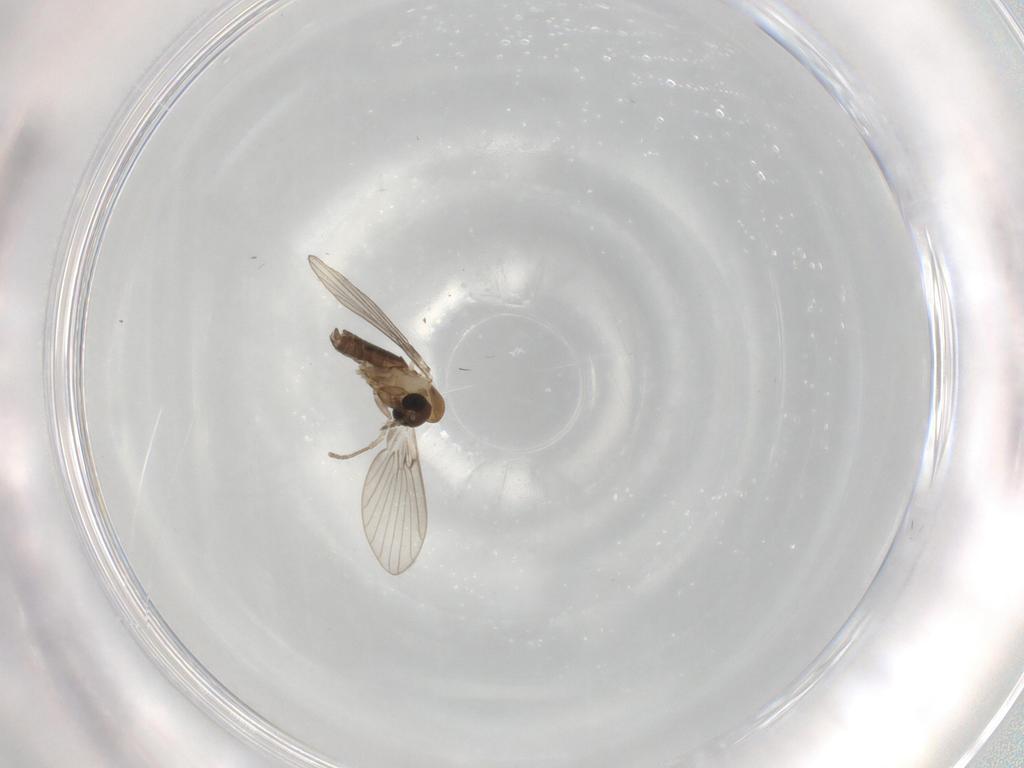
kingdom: Animalia
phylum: Arthropoda
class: Insecta
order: Diptera
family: Psychodidae
